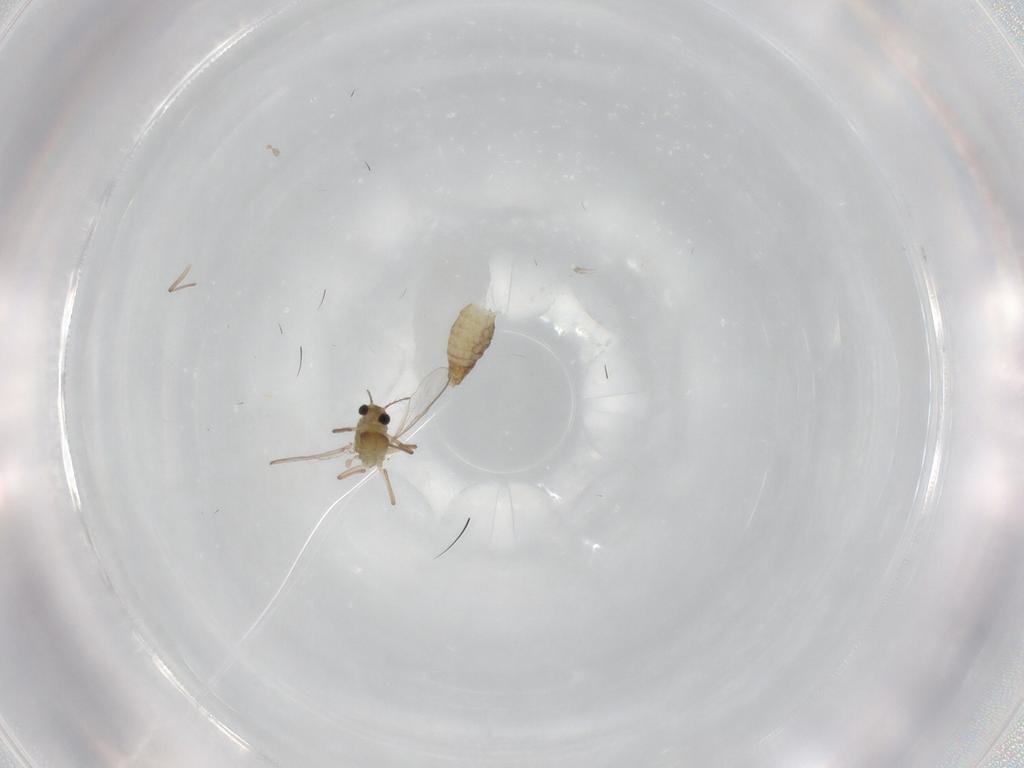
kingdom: Animalia
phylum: Arthropoda
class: Insecta
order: Diptera
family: Chironomidae
